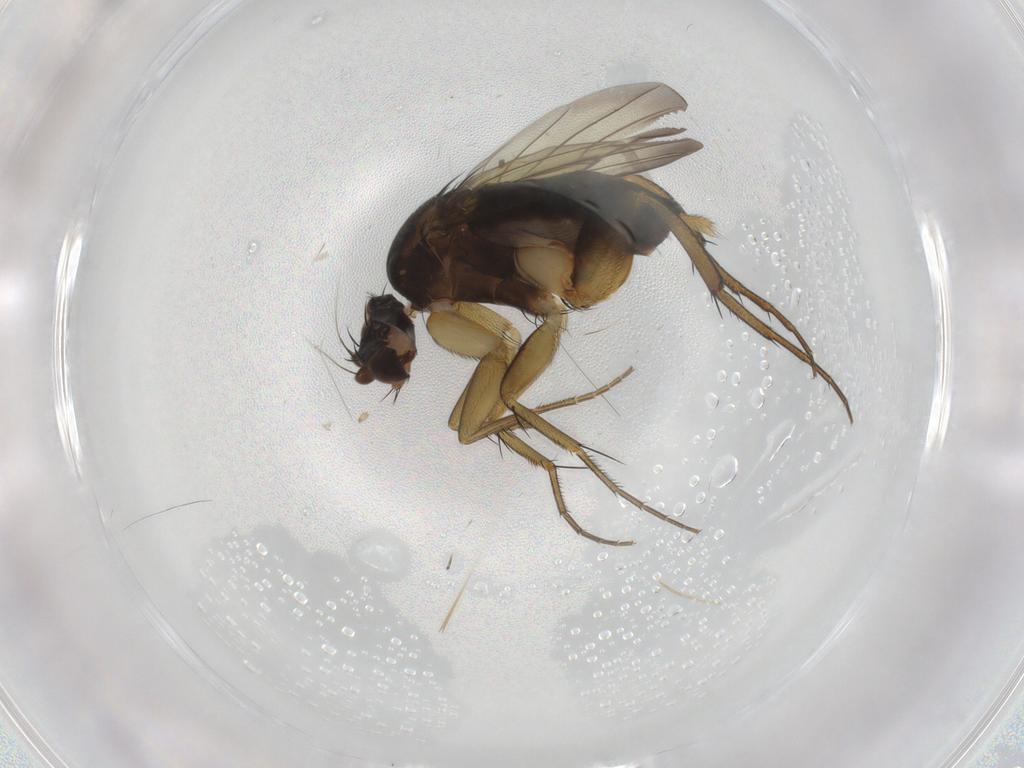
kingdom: Animalia
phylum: Arthropoda
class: Insecta
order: Diptera
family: Phoridae
